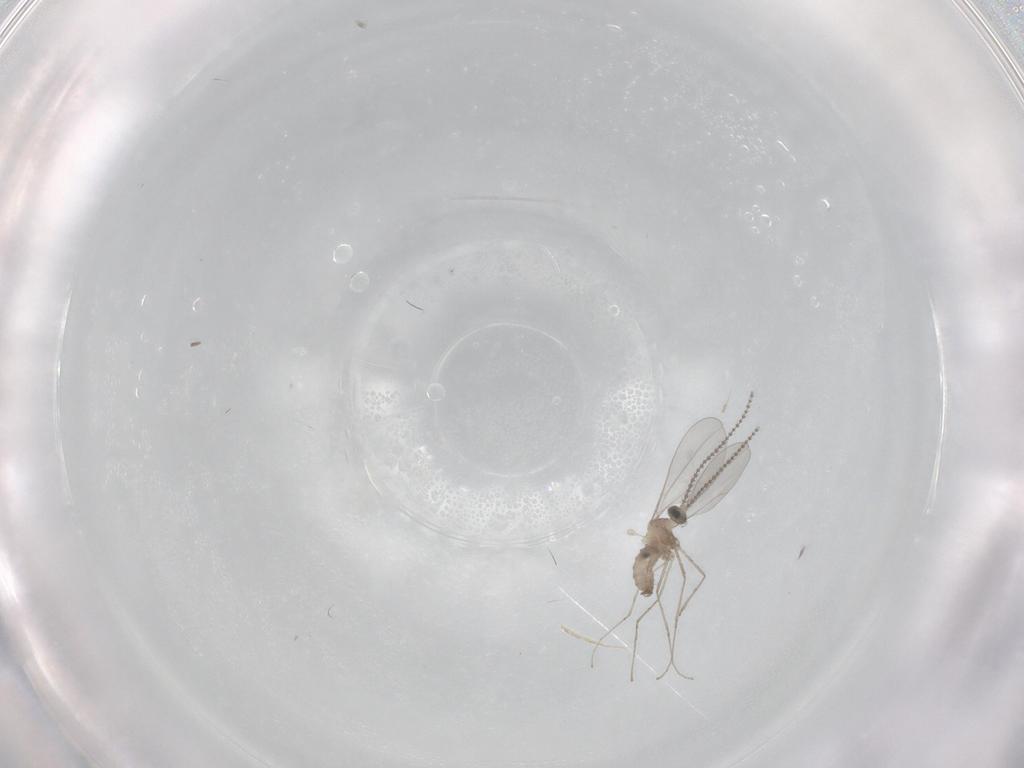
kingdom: Animalia
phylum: Arthropoda
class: Insecta
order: Diptera
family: Cecidomyiidae
